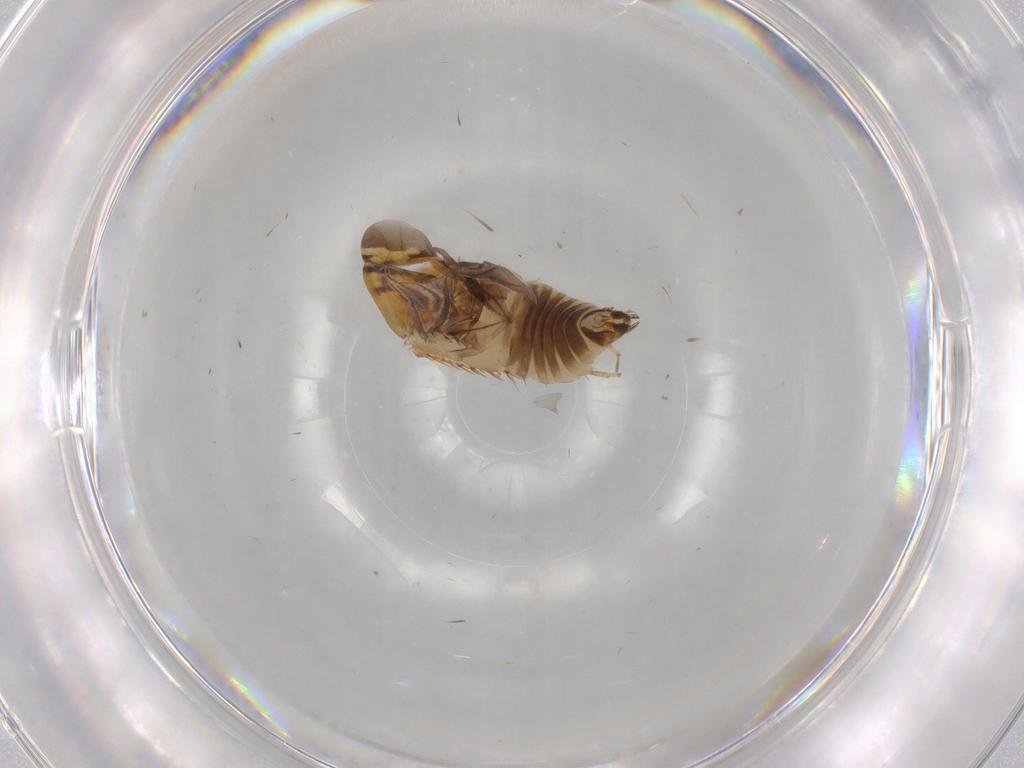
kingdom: Animalia
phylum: Arthropoda
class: Insecta
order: Hemiptera
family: Cicadellidae
